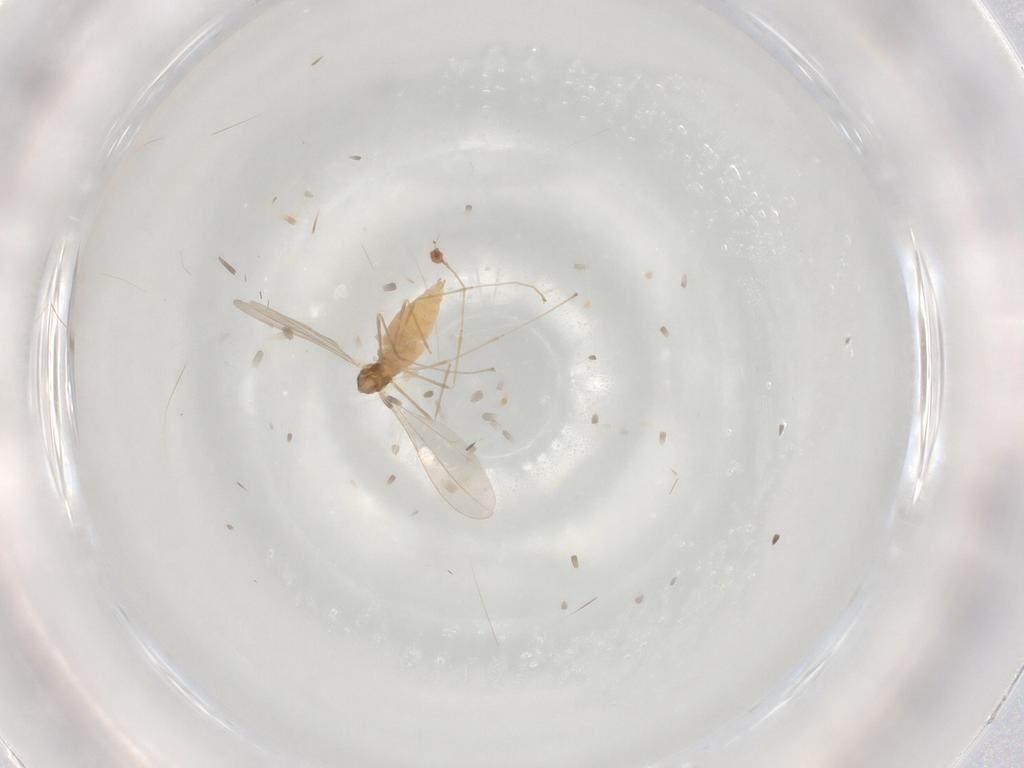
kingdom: Animalia
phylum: Arthropoda
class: Insecta
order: Diptera
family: Cecidomyiidae
